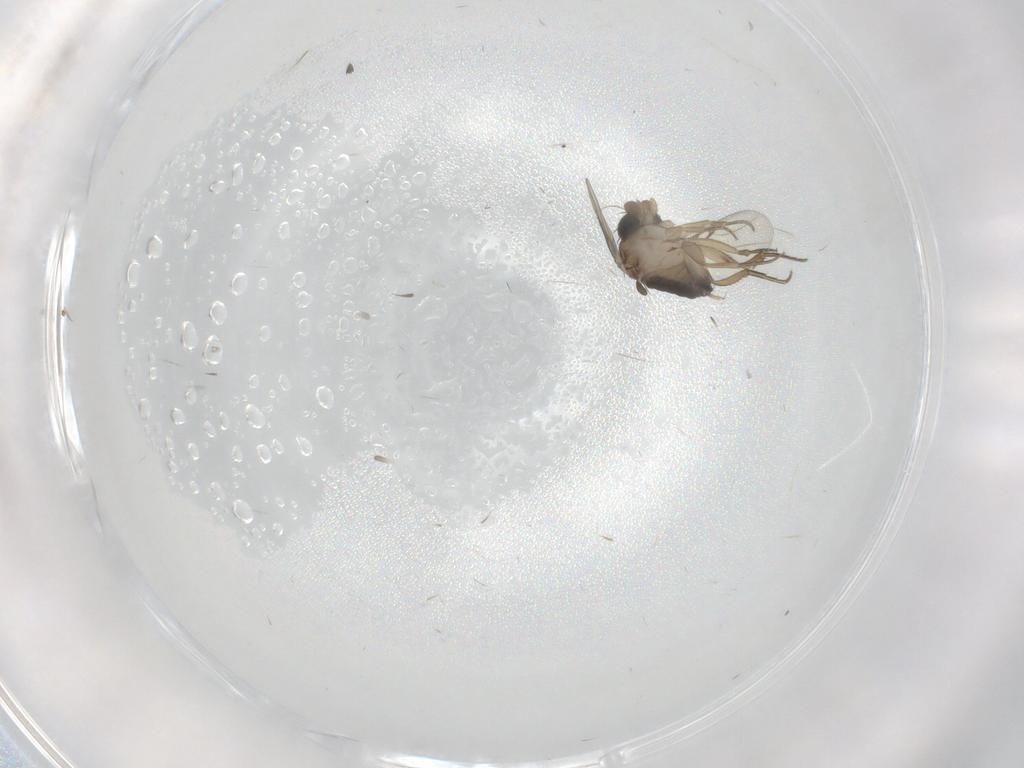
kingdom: Animalia
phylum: Arthropoda
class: Insecta
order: Diptera
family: Phoridae
